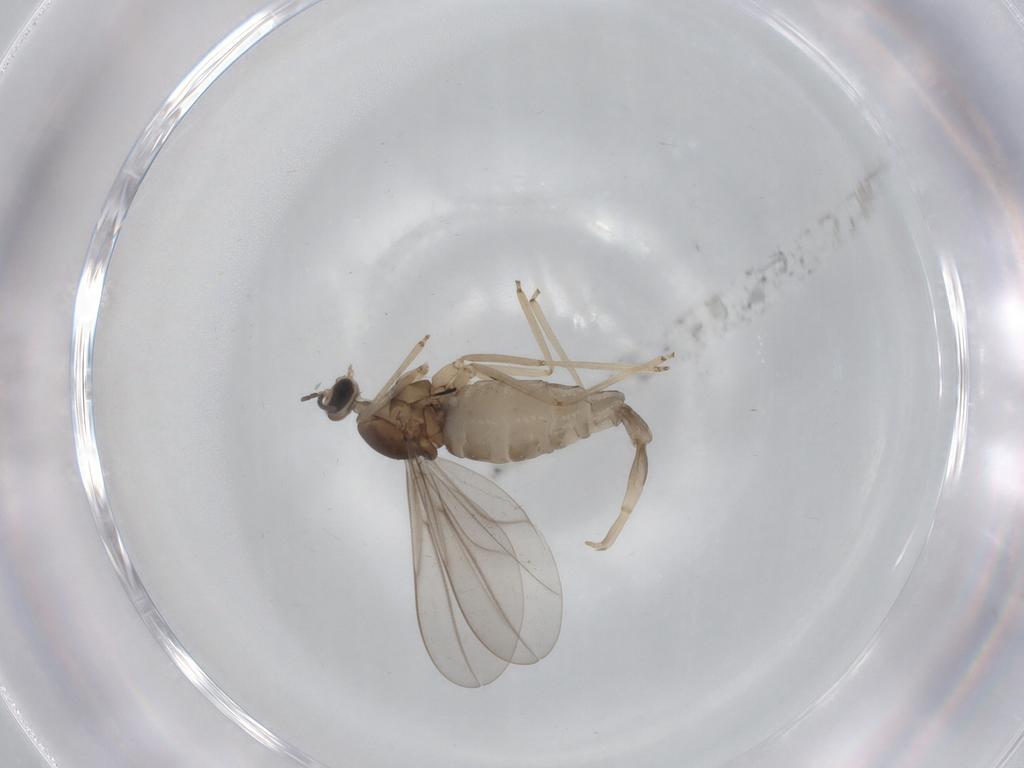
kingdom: Animalia
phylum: Arthropoda
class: Insecta
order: Diptera
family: Cecidomyiidae
